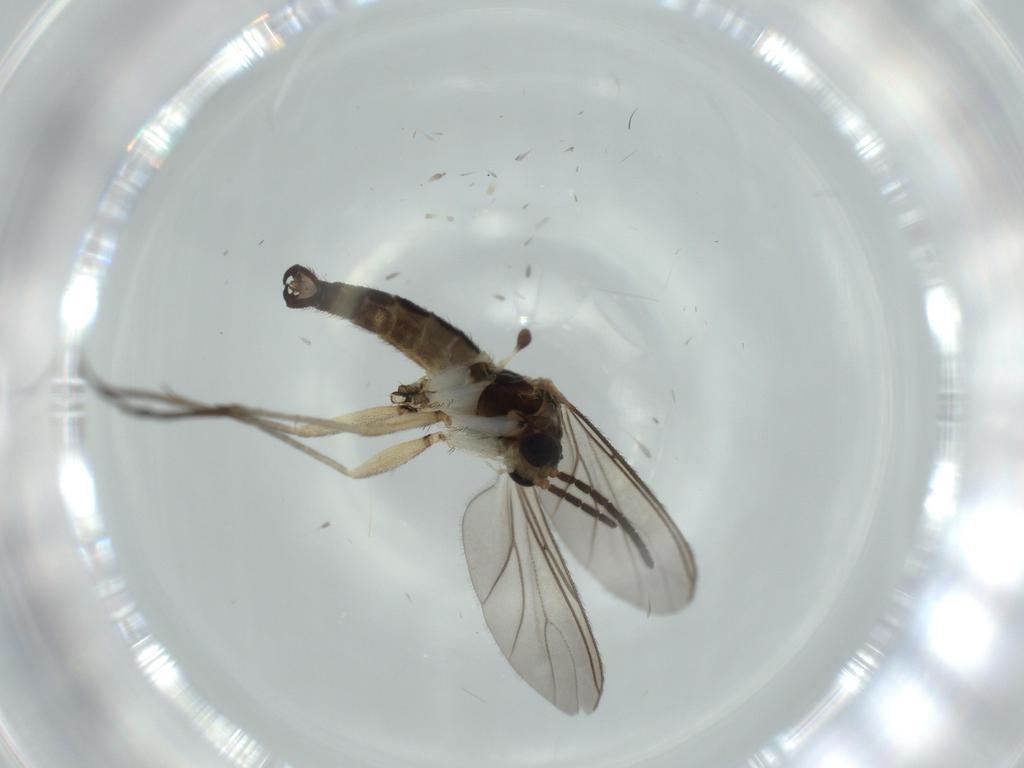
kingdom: Animalia
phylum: Arthropoda
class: Insecta
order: Diptera
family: Sciaridae
